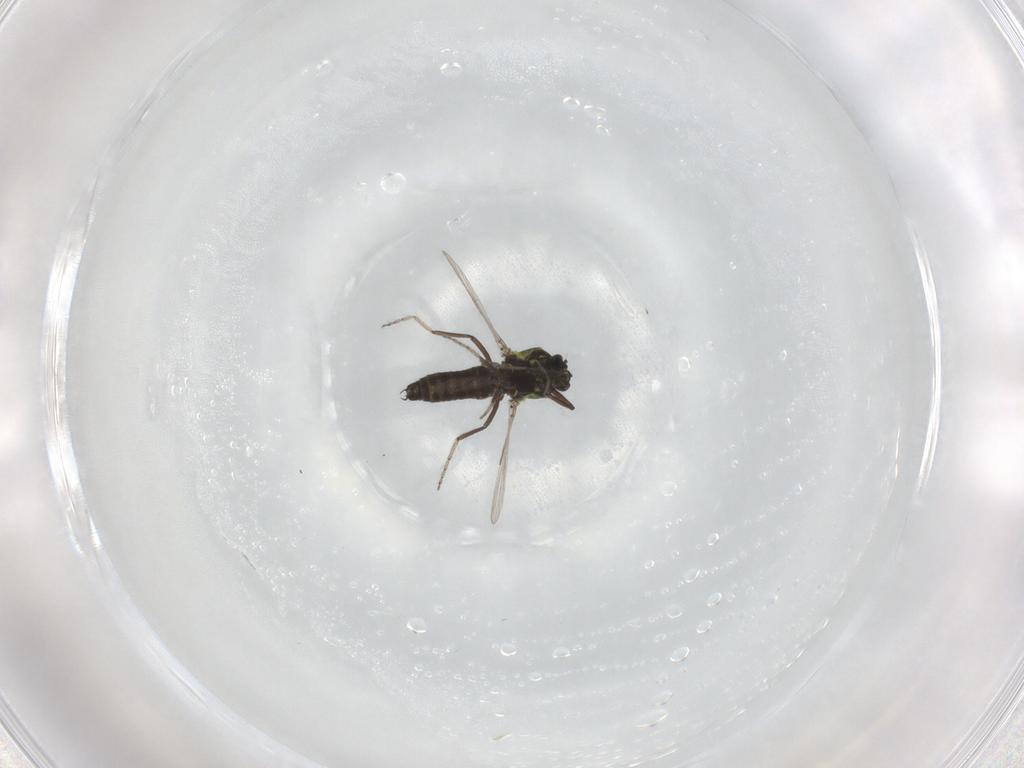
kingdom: Animalia
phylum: Arthropoda
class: Insecta
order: Diptera
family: Ceratopogonidae
